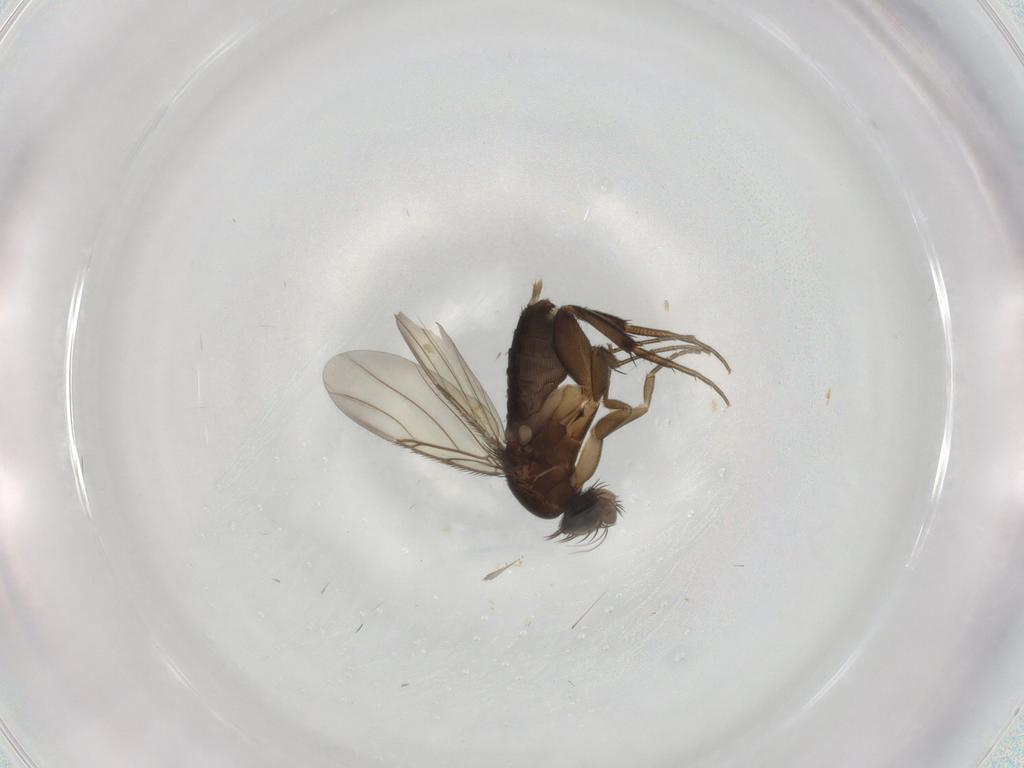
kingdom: Animalia
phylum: Arthropoda
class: Insecta
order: Diptera
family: Phoridae
